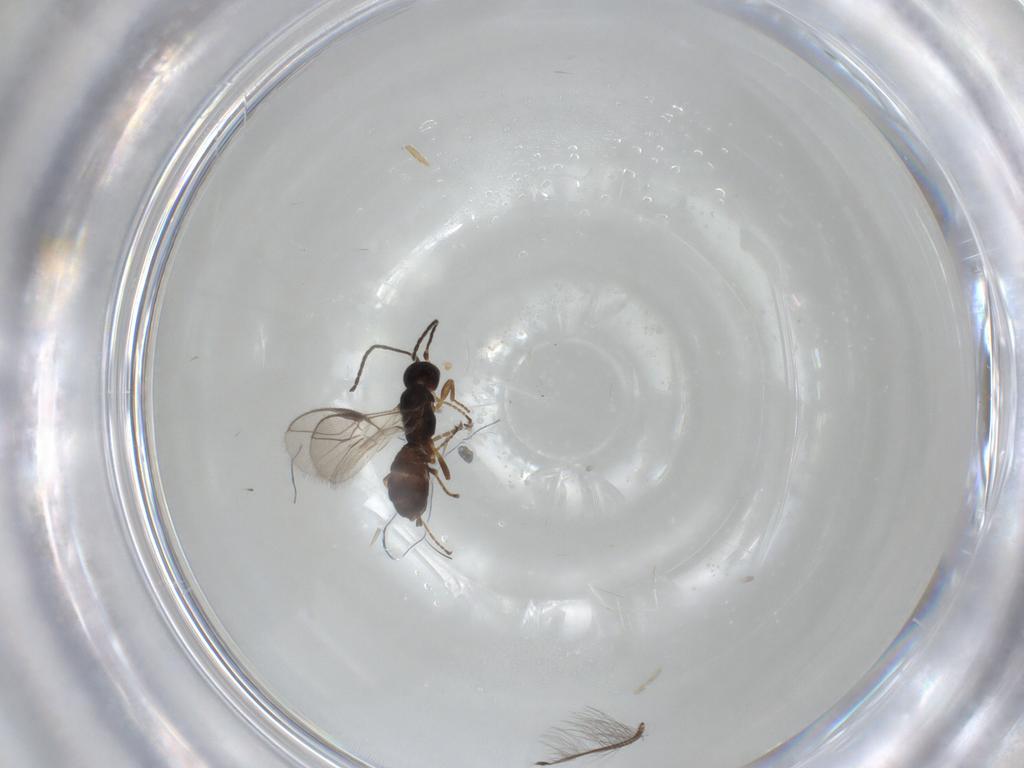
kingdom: Animalia
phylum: Arthropoda
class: Insecta
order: Hymenoptera
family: Braconidae
